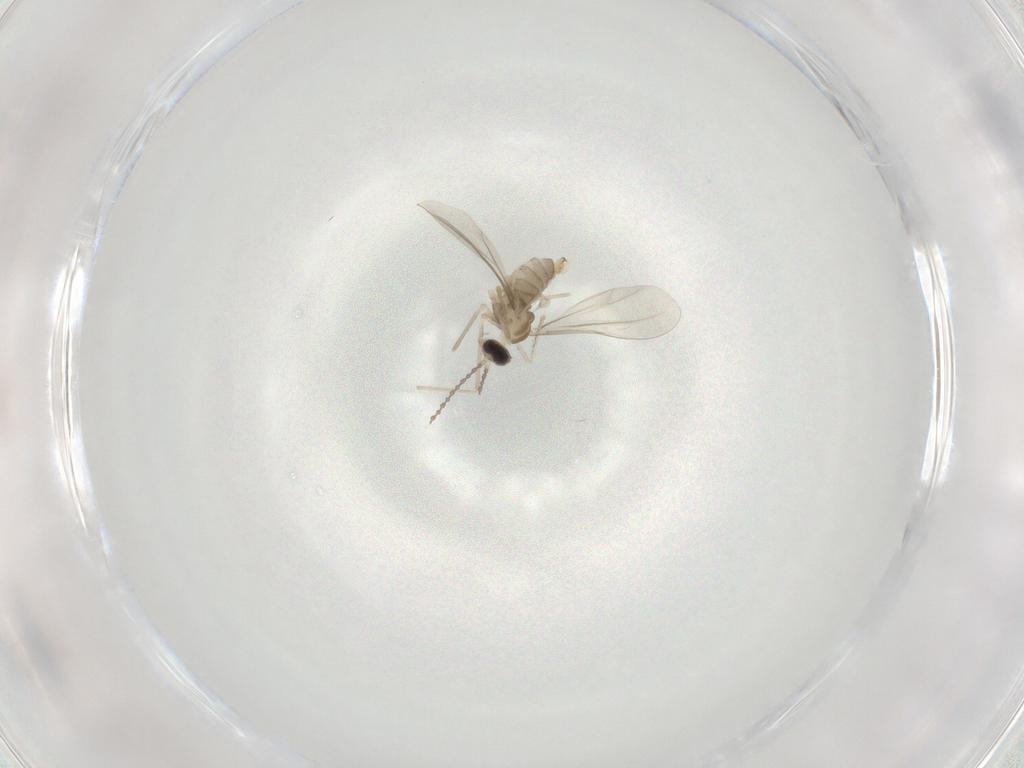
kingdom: Animalia
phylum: Arthropoda
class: Insecta
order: Diptera
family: Cecidomyiidae
